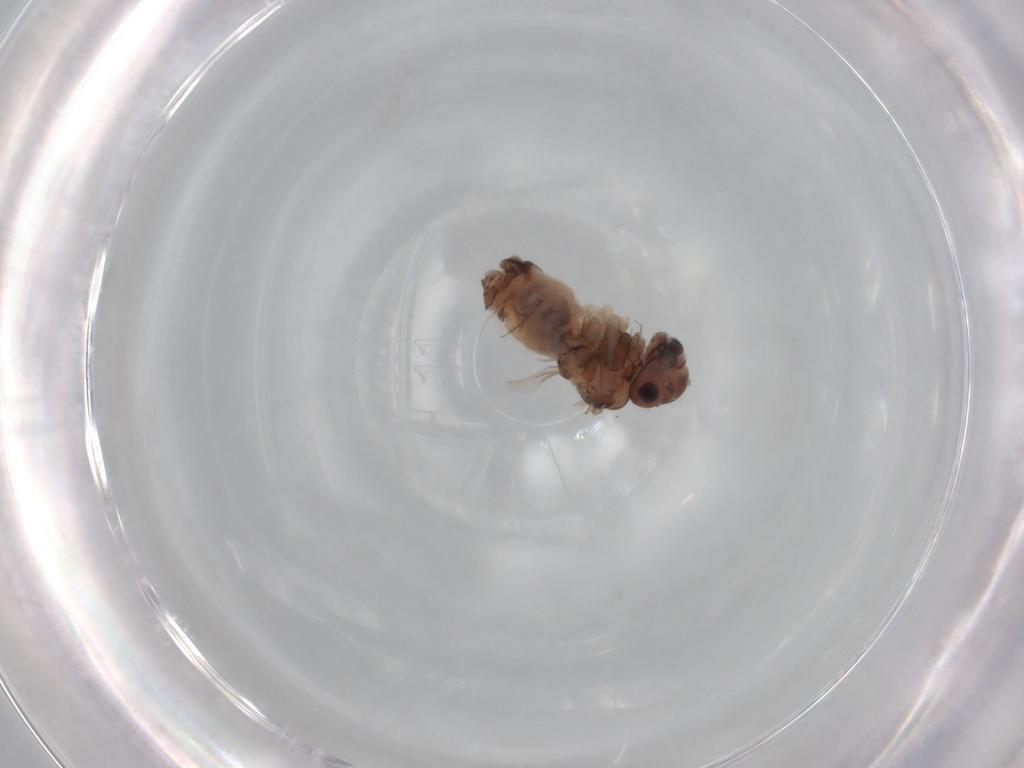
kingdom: Animalia
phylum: Arthropoda
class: Insecta
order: Psocodea
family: Peripsocidae
